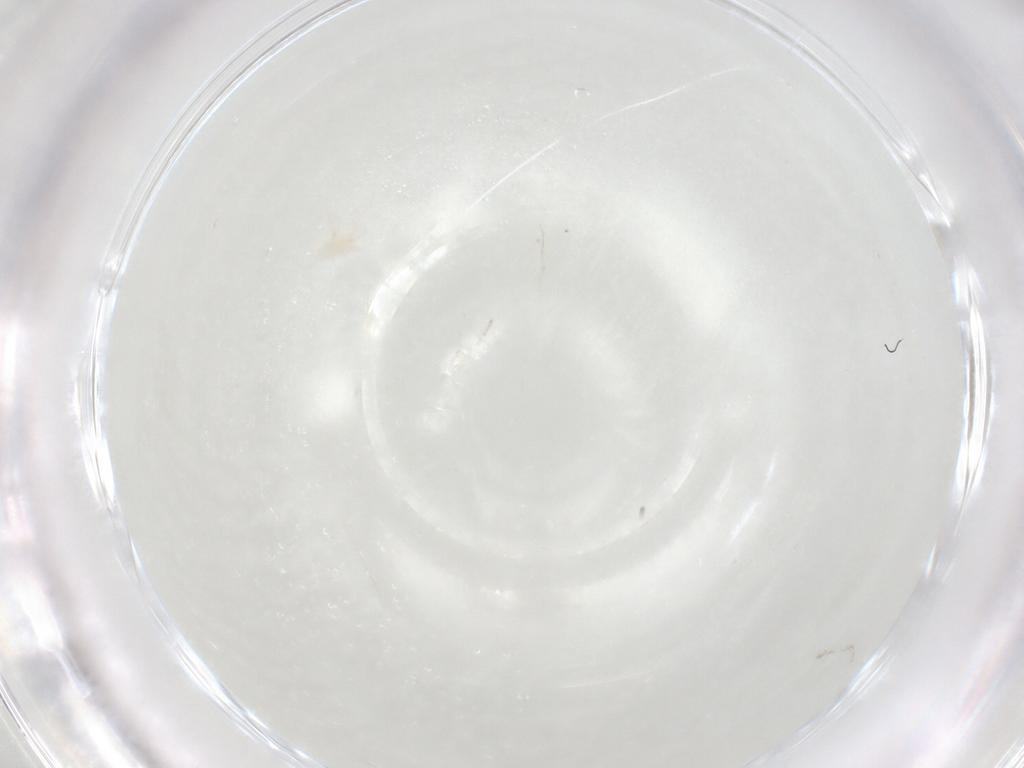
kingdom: Animalia
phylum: Arthropoda
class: Arachnida
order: Mesostigmata
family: Phytoseiidae
